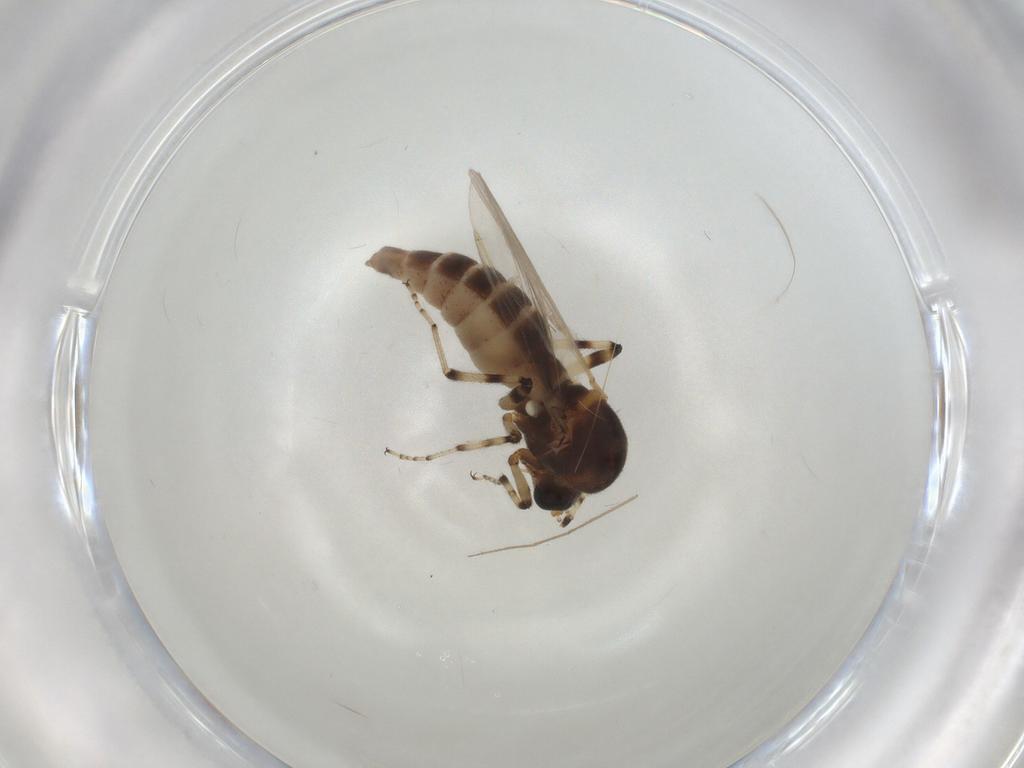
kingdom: Animalia
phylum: Arthropoda
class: Insecta
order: Diptera
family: Ceratopogonidae
